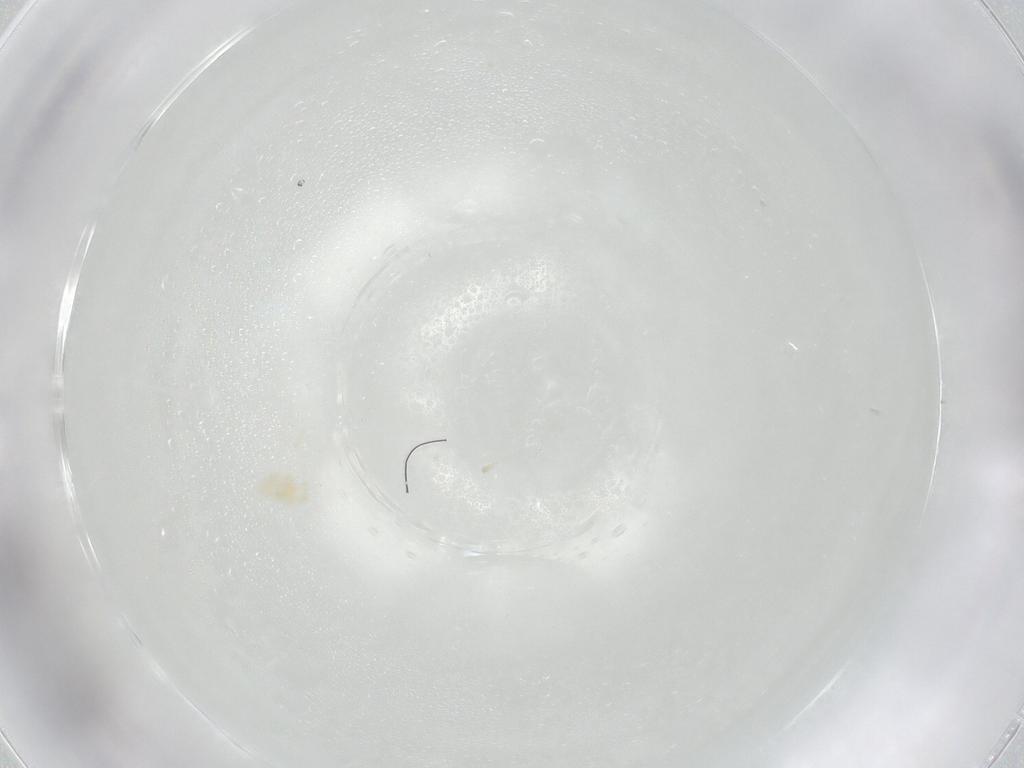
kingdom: Animalia
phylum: Arthropoda
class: Arachnida
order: Trombidiformes
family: Eupodidae
